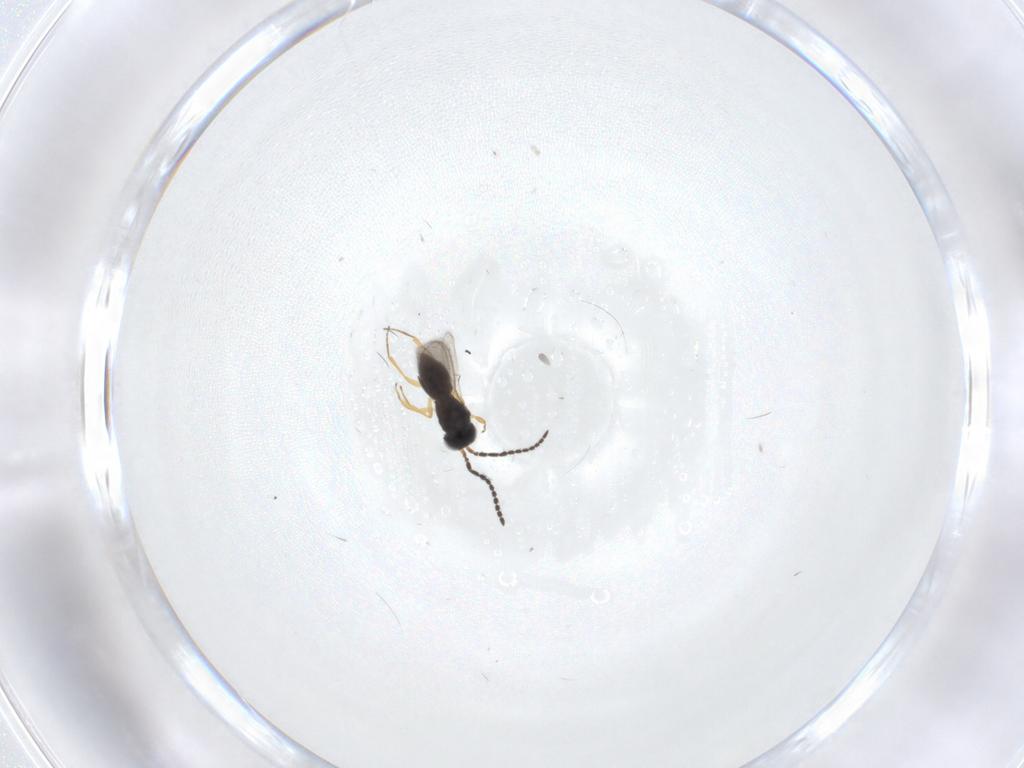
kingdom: Animalia
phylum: Arthropoda
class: Insecta
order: Hymenoptera
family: Scelionidae
